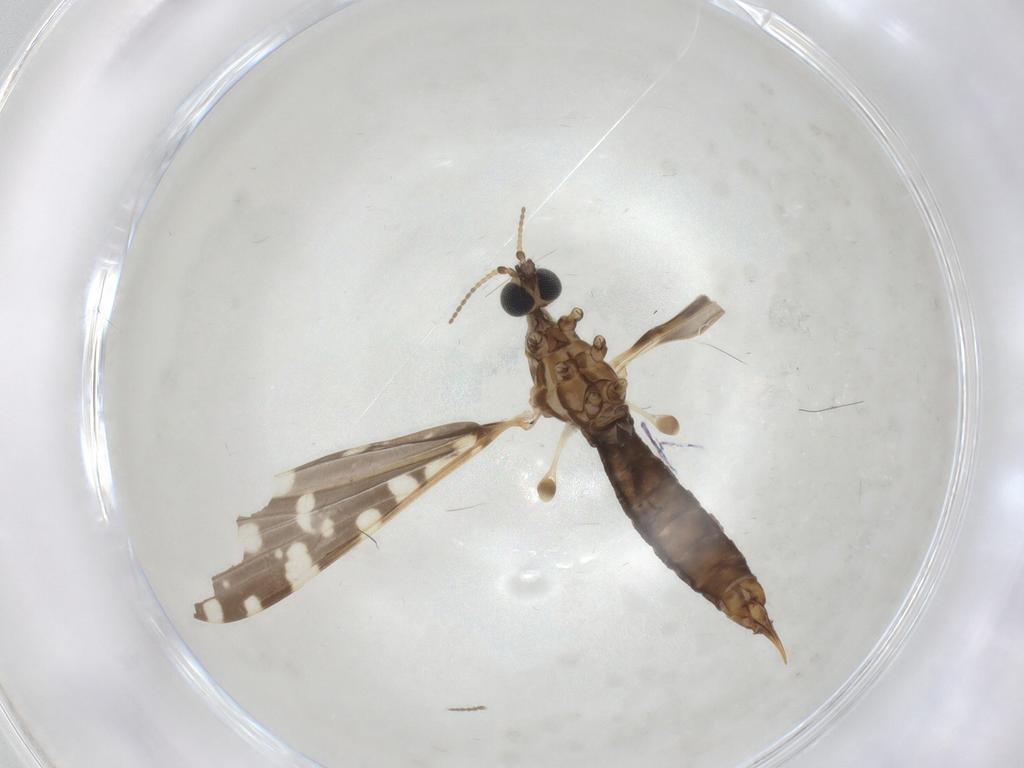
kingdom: Animalia
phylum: Arthropoda
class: Insecta
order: Diptera
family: Limoniidae
